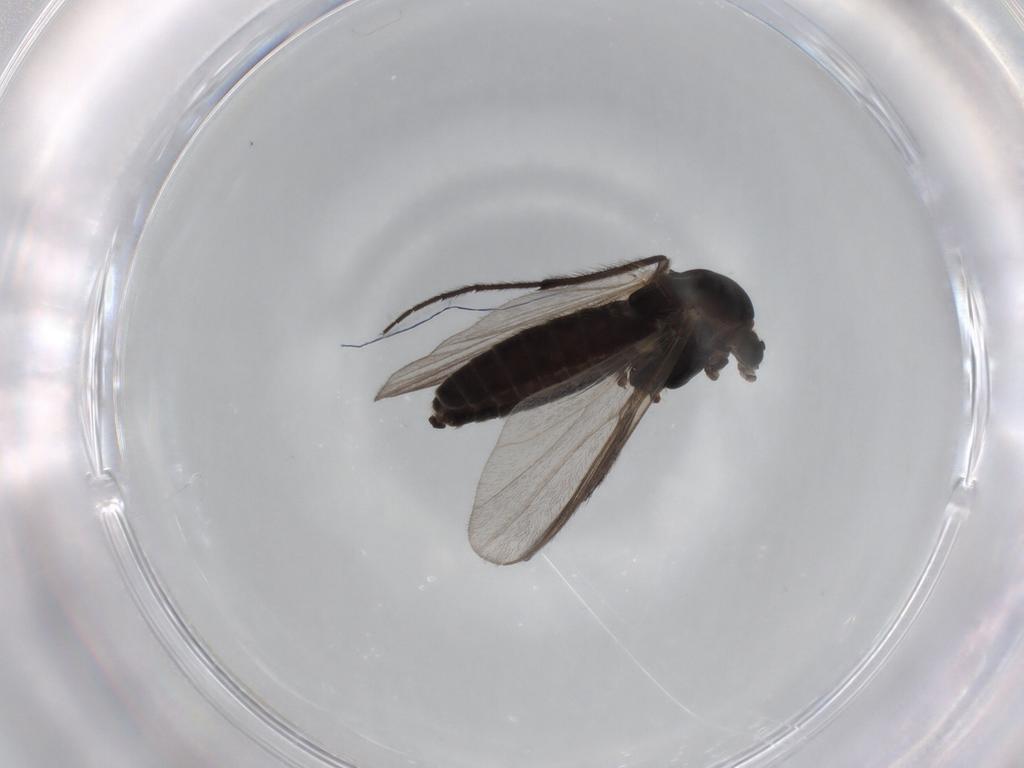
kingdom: Animalia
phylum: Arthropoda
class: Insecta
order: Diptera
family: Chironomidae
